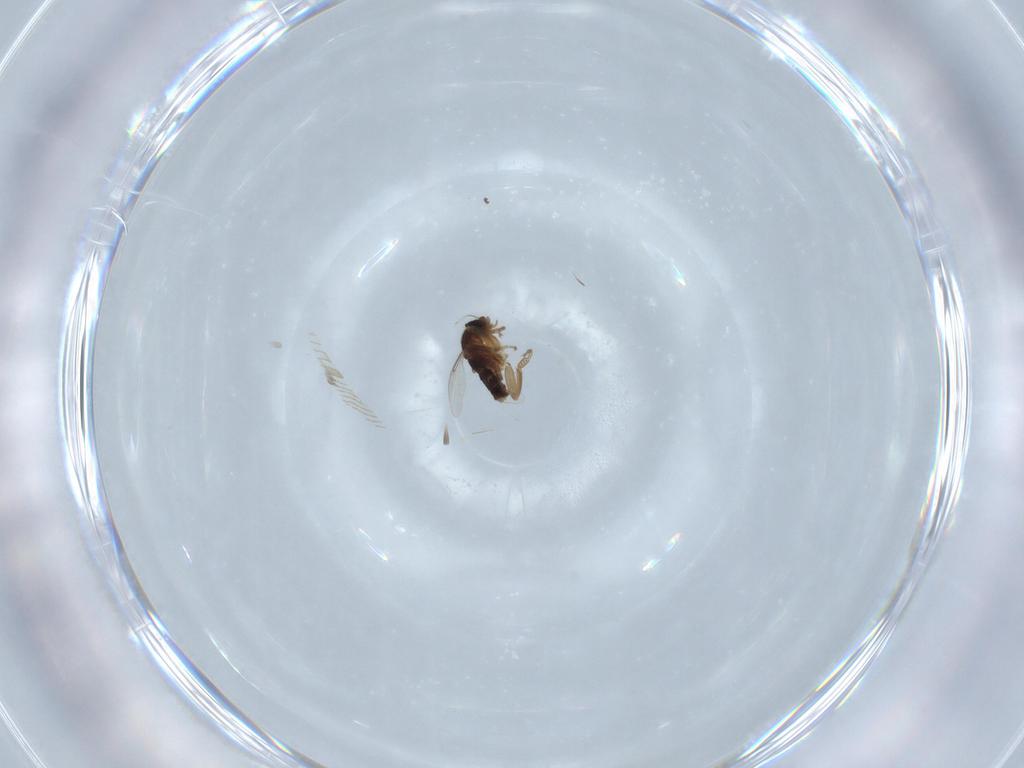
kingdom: Animalia
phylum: Arthropoda
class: Insecta
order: Diptera
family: Phoridae
